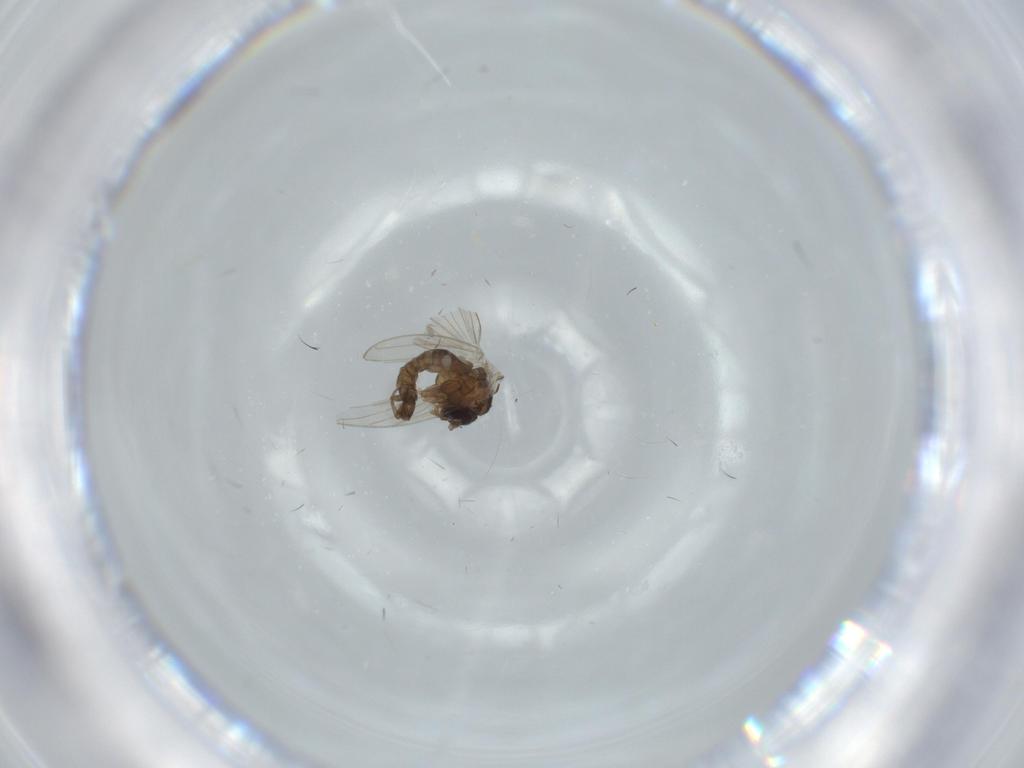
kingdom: Animalia
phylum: Arthropoda
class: Insecta
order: Diptera
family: Psychodidae
